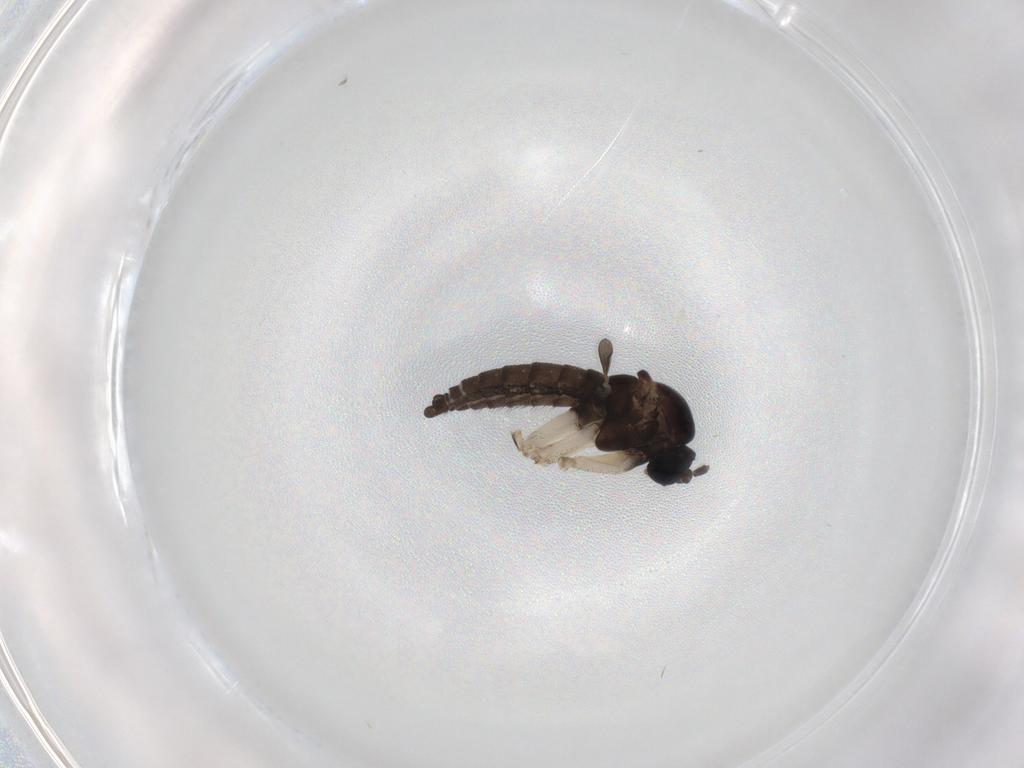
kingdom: Animalia
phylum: Arthropoda
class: Insecta
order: Diptera
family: Sciaridae
